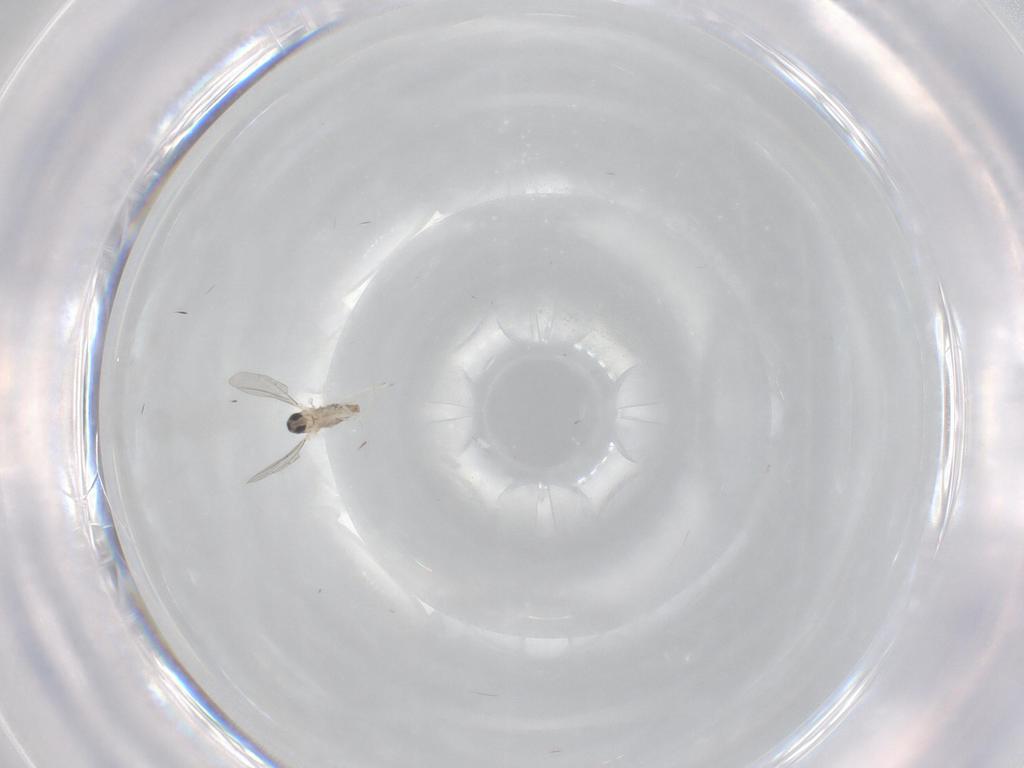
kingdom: Animalia
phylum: Arthropoda
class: Insecta
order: Diptera
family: Cecidomyiidae
